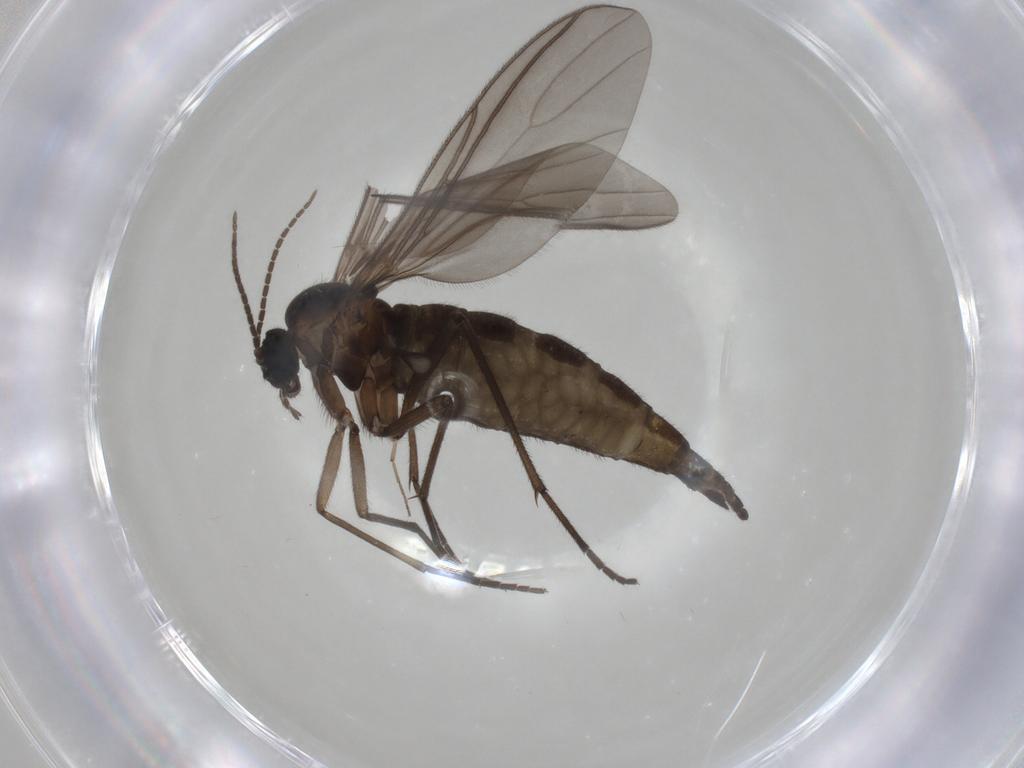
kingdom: Animalia
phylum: Arthropoda
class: Insecta
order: Diptera
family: Sciaridae
